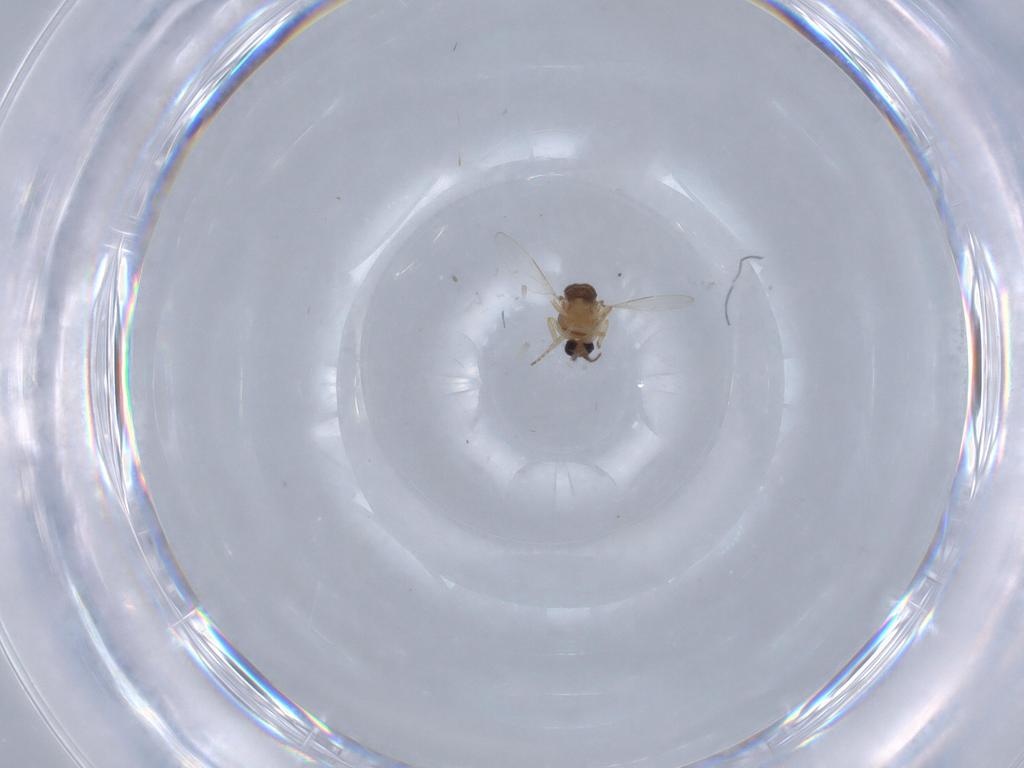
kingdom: Animalia
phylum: Arthropoda
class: Insecta
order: Diptera
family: Ceratopogonidae
